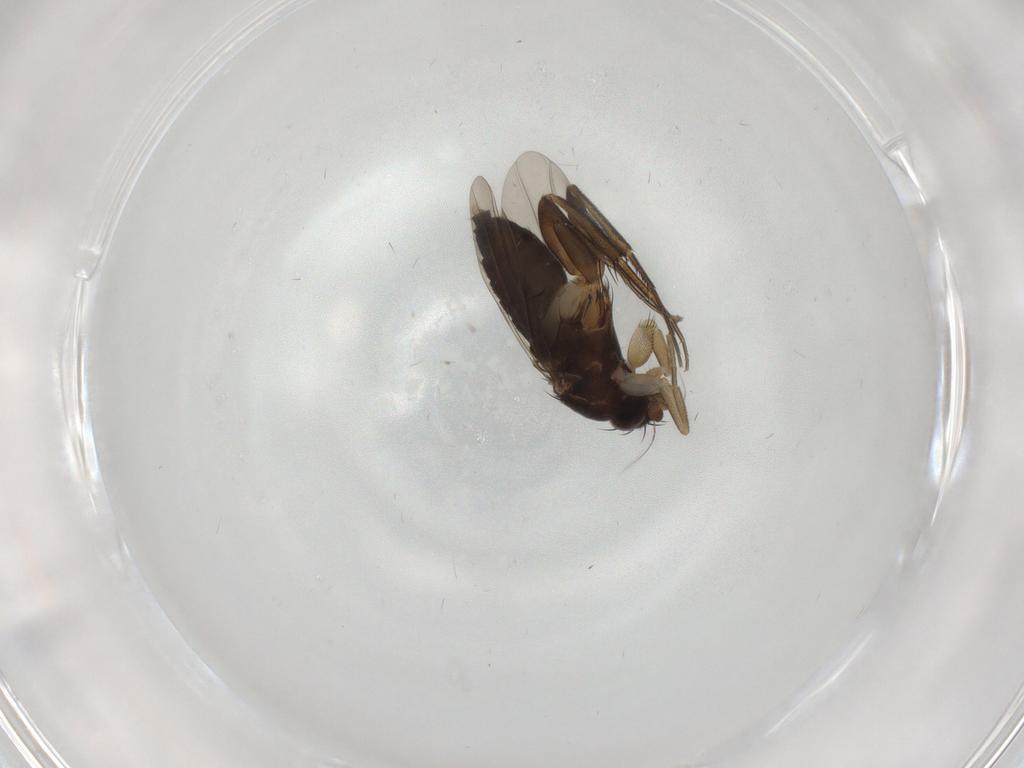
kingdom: Animalia
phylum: Arthropoda
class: Insecta
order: Diptera
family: Phoridae
